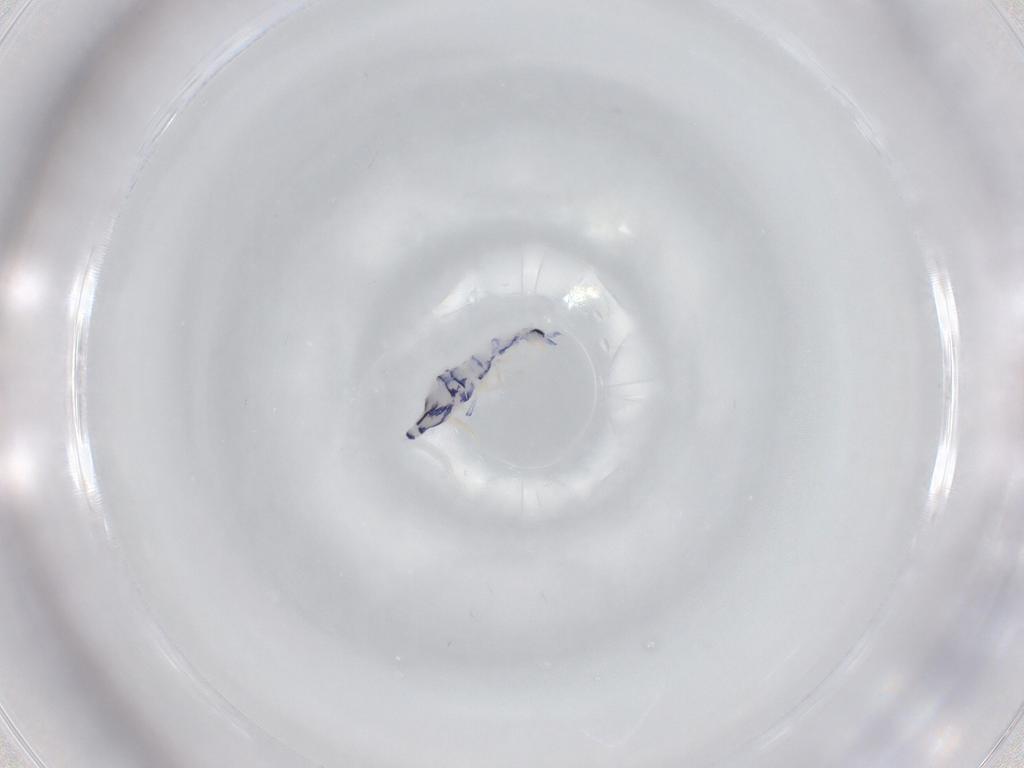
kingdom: Animalia
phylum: Arthropoda
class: Collembola
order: Entomobryomorpha
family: Entomobryidae
